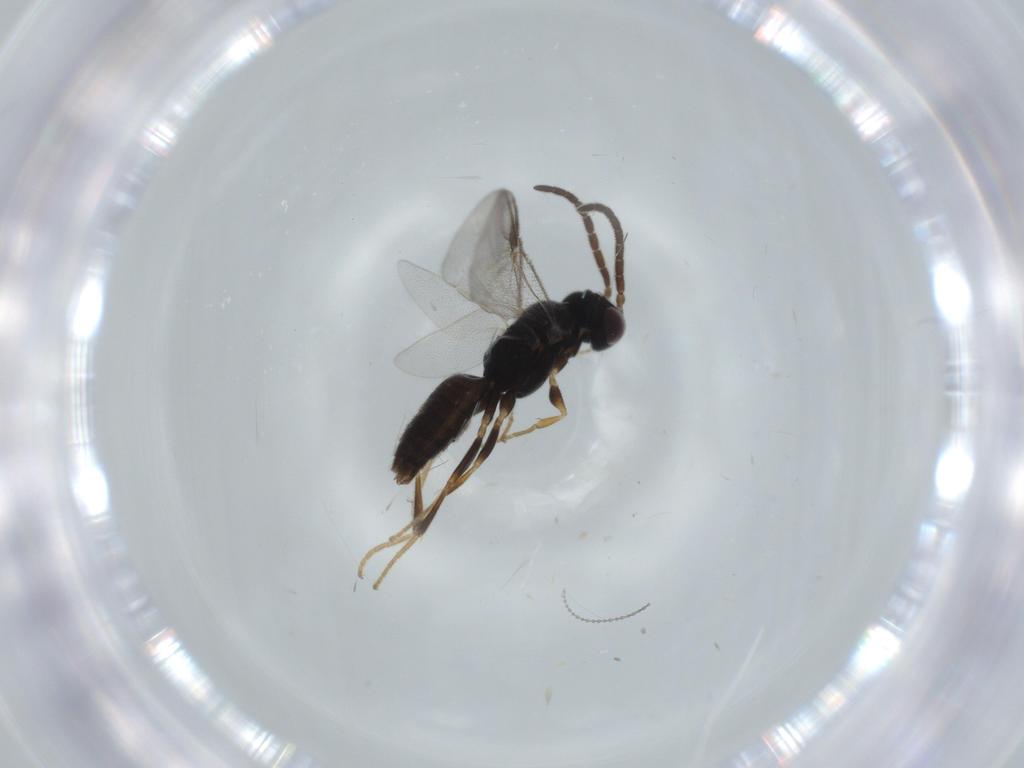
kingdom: Animalia
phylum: Arthropoda
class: Insecta
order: Hymenoptera
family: Dryinidae
